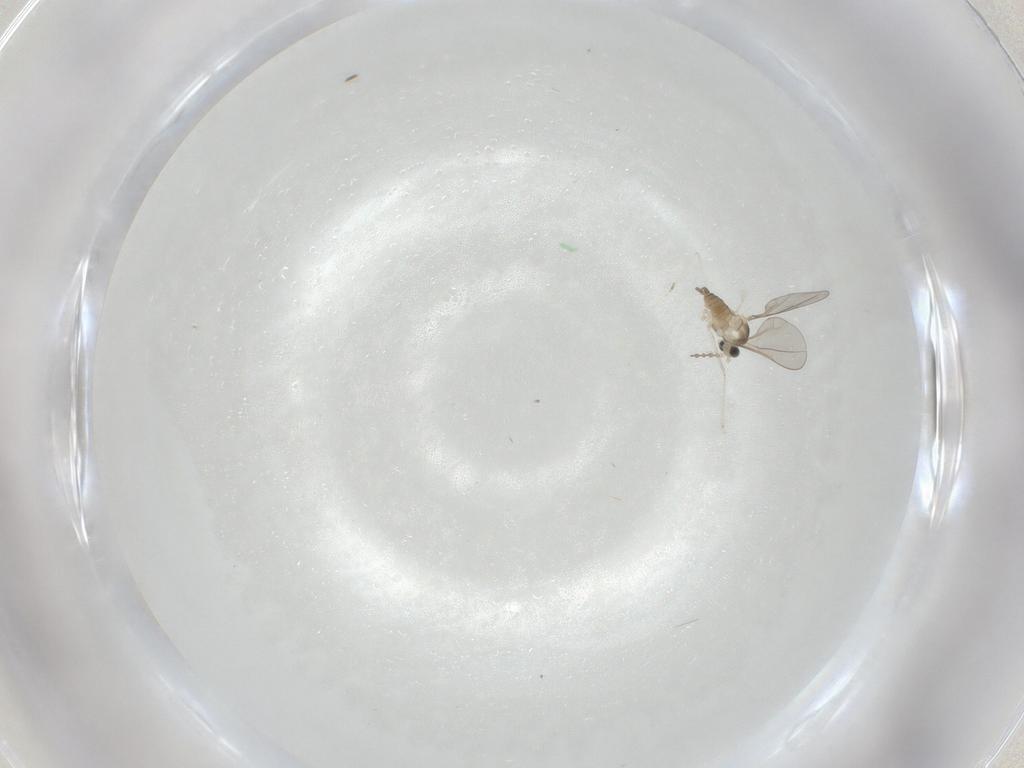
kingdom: Animalia
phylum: Arthropoda
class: Insecta
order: Diptera
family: Cecidomyiidae
